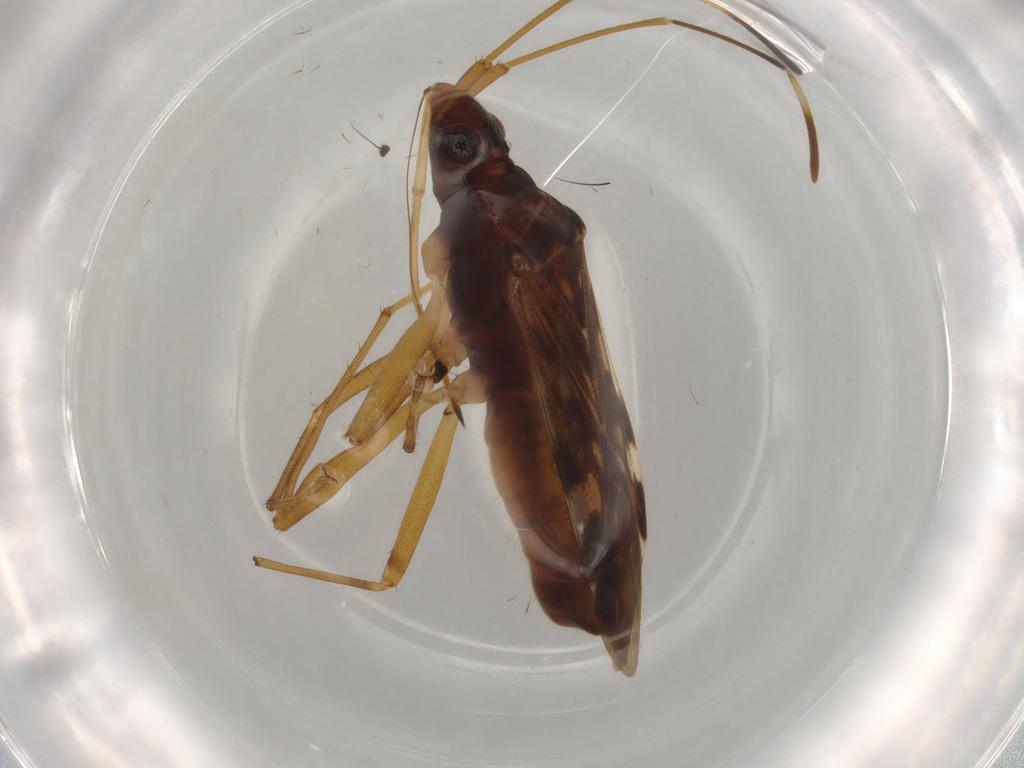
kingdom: Animalia
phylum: Arthropoda
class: Insecta
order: Hemiptera
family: Rhyparochromidae
